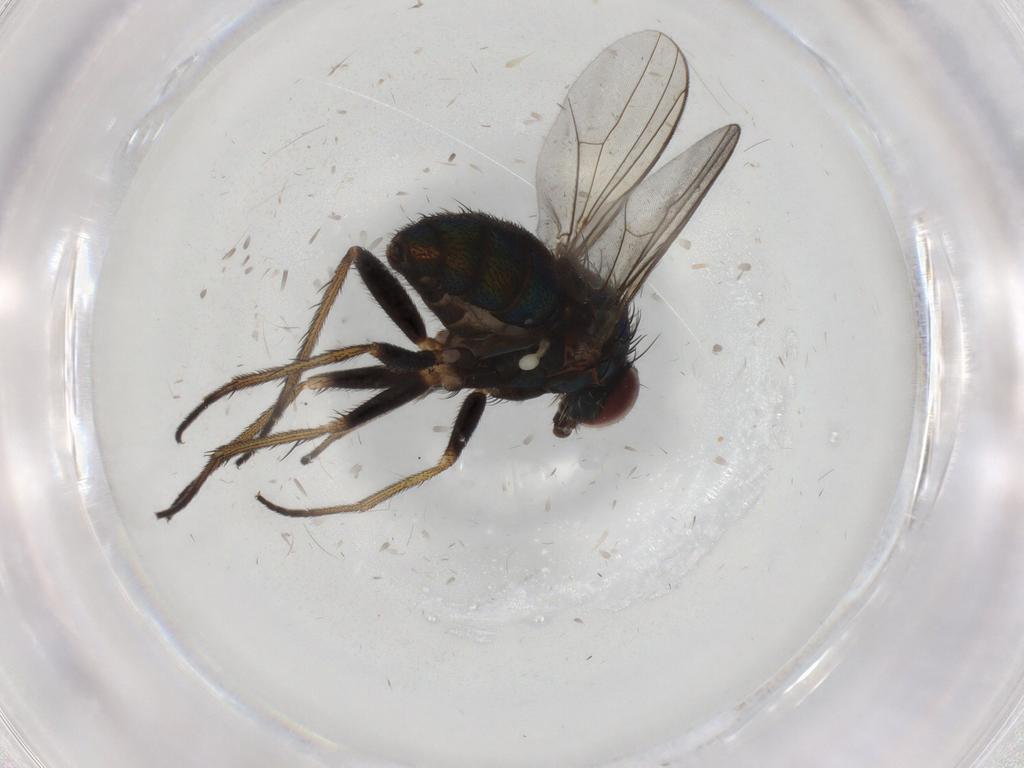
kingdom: Animalia
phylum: Arthropoda
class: Insecta
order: Diptera
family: Dolichopodidae
